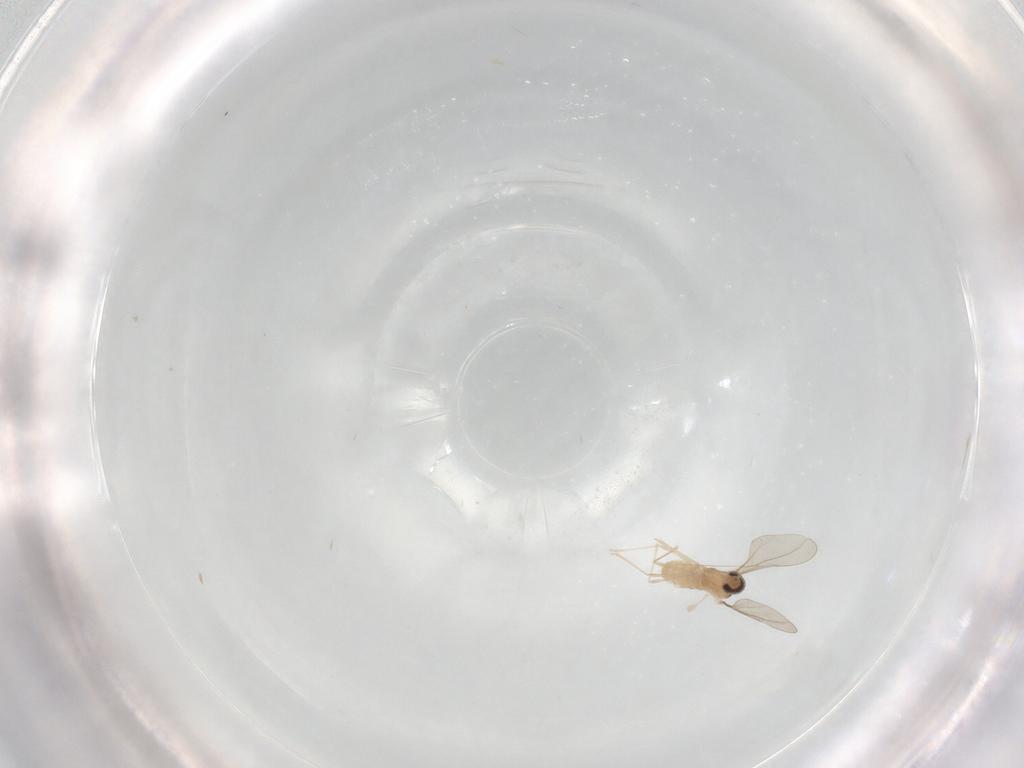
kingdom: Animalia
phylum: Arthropoda
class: Insecta
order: Diptera
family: Cecidomyiidae
